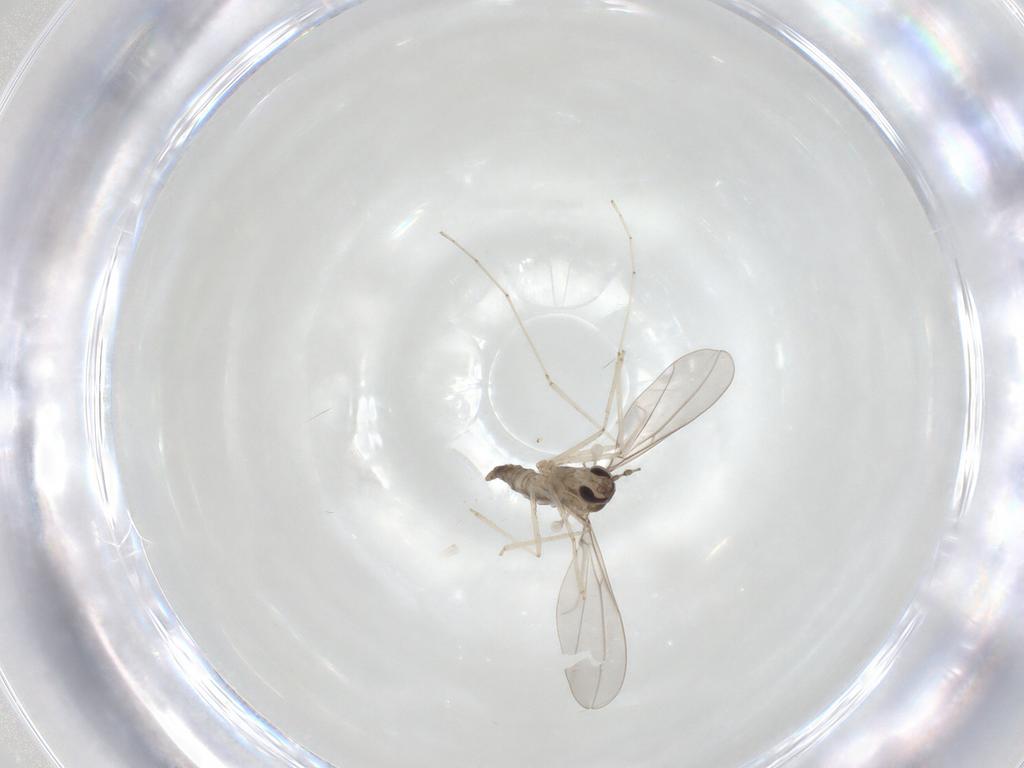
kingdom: Animalia
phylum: Arthropoda
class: Insecta
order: Diptera
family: Cecidomyiidae
